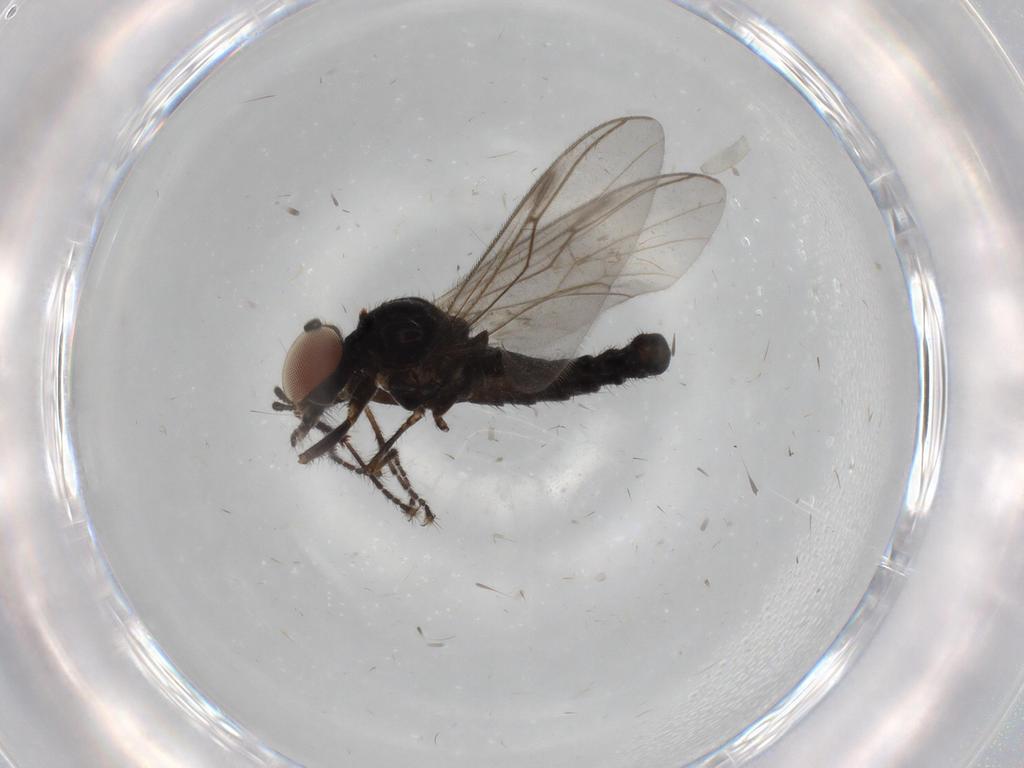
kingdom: Animalia
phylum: Arthropoda
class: Insecta
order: Diptera
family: Bibionidae
